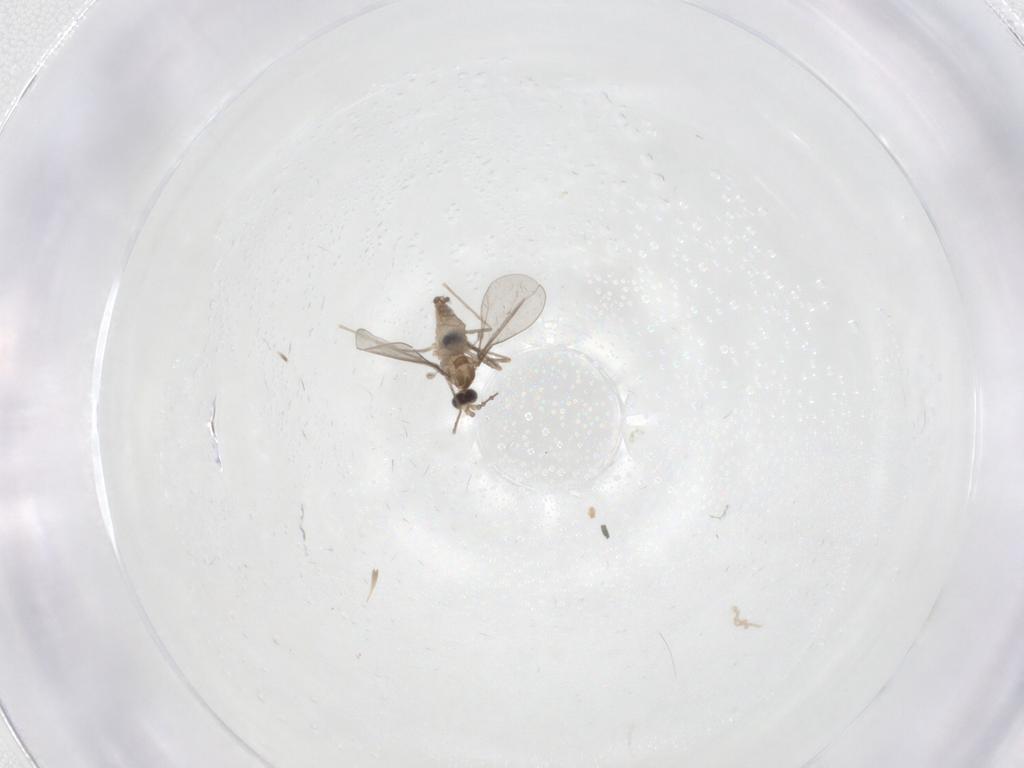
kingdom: Animalia
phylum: Arthropoda
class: Insecta
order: Diptera
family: Cecidomyiidae
